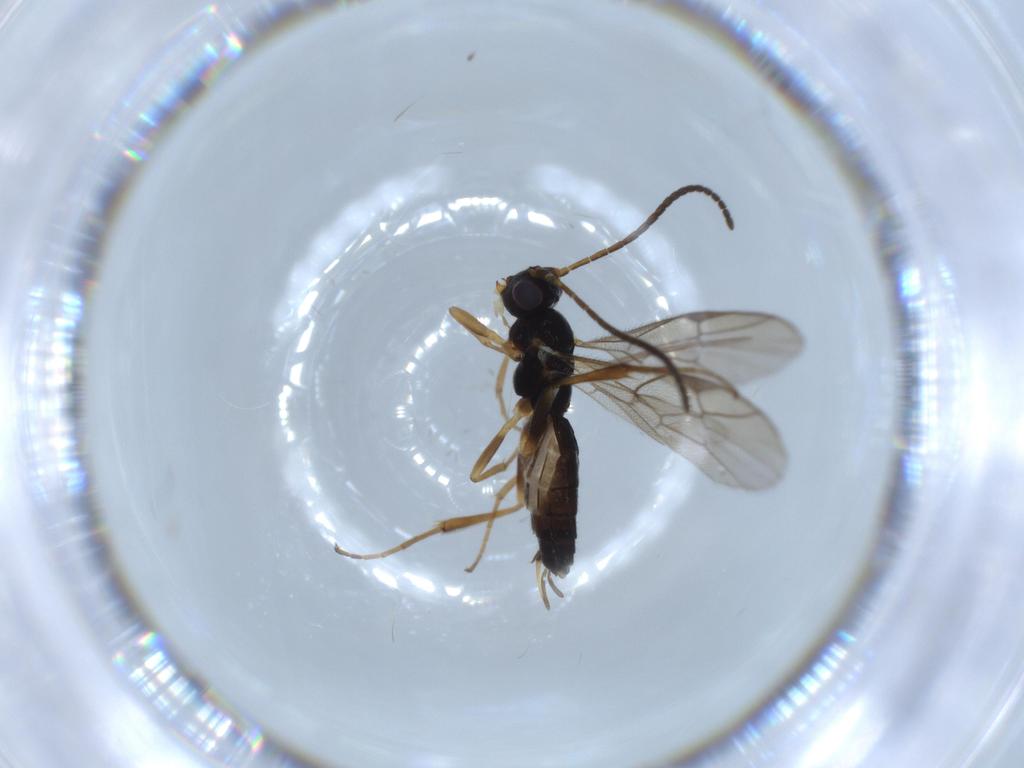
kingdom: Animalia
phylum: Arthropoda
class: Insecta
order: Hymenoptera
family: Ichneumonidae
